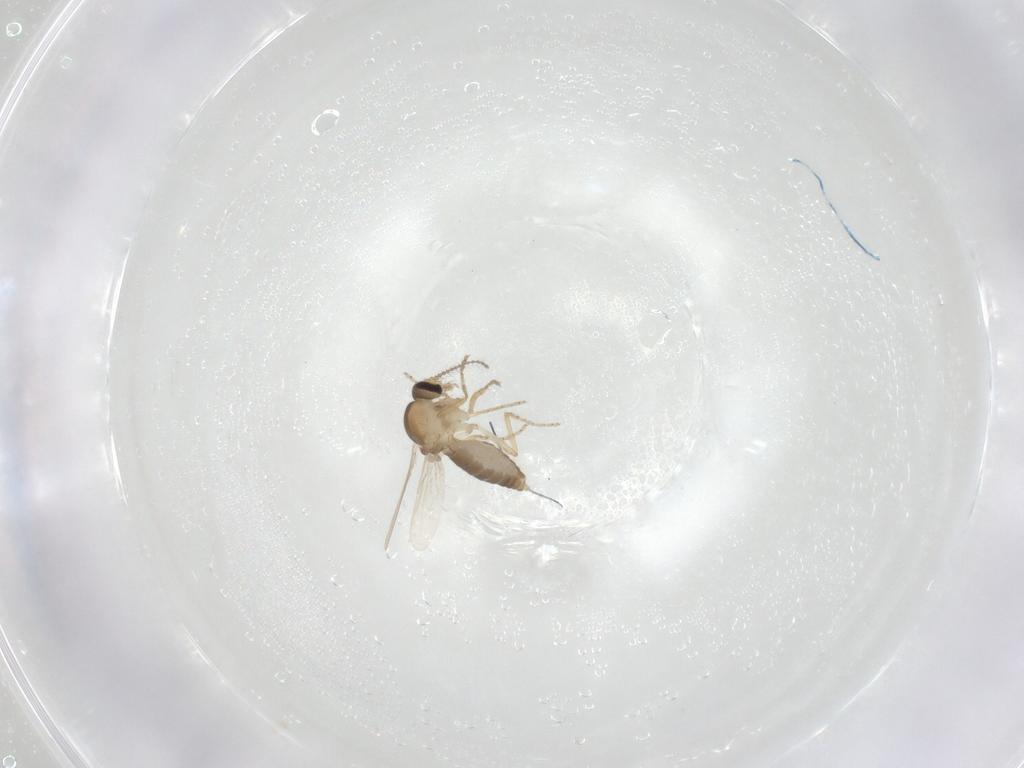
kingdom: Animalia
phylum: Arthropoda
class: Insecta
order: Diptera
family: Ceratopogonidae
